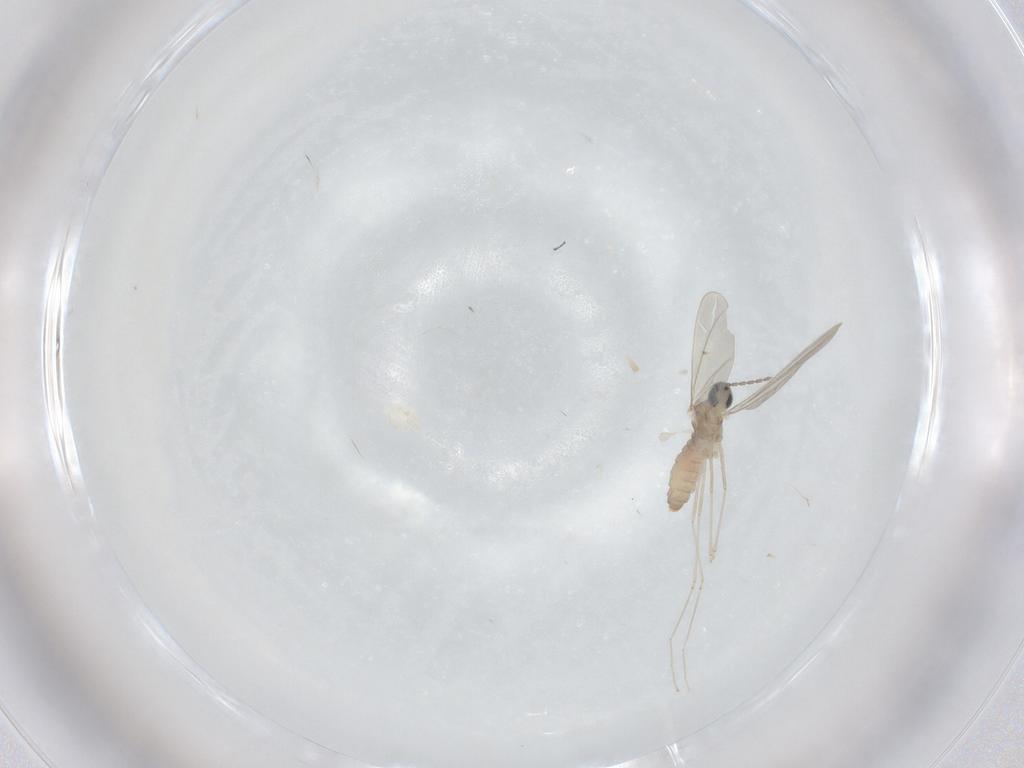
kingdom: Animalia
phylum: Arthropoda
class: Insecta
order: Diptera
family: Cecidomyiidae
